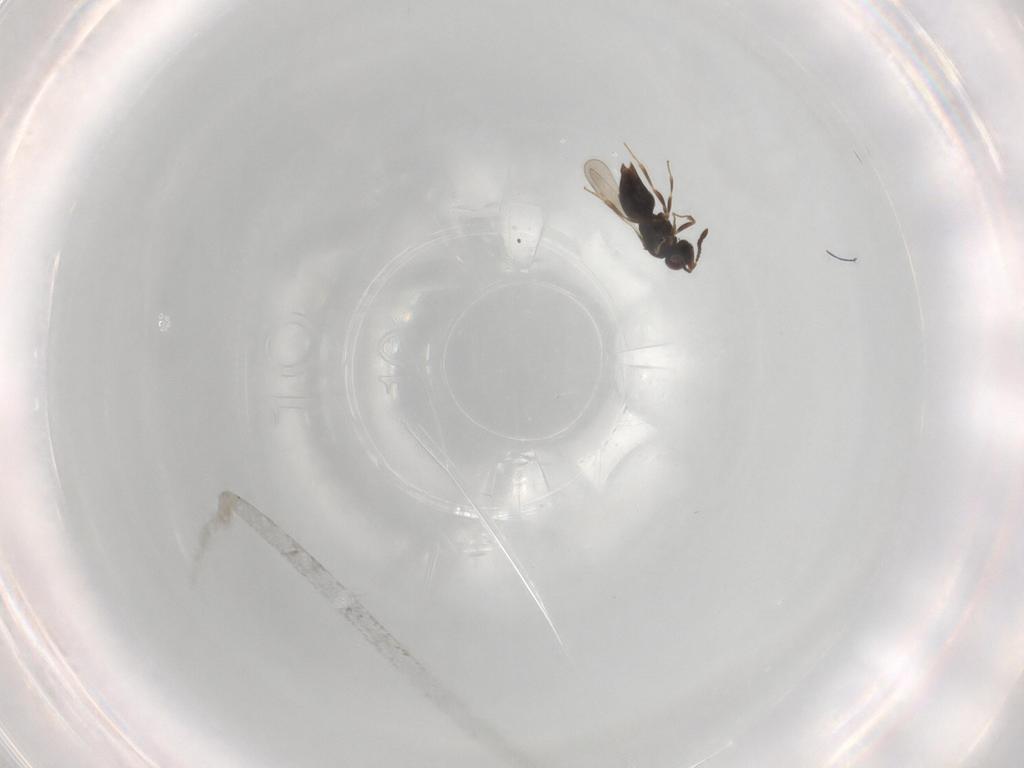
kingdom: Animalia
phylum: Arthropoda
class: Insecta
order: Hymenoptera
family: Ceraphronidae
